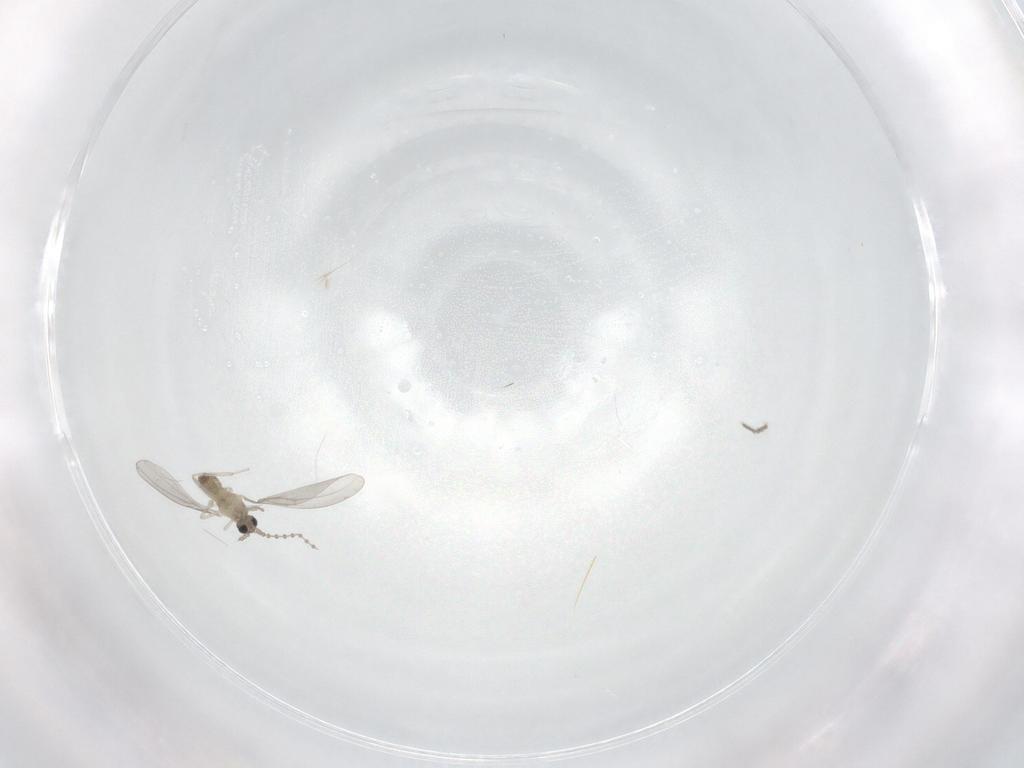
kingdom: Animalia
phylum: Arthropoda
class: Insecta
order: Diptera
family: Cecidomyiidae
